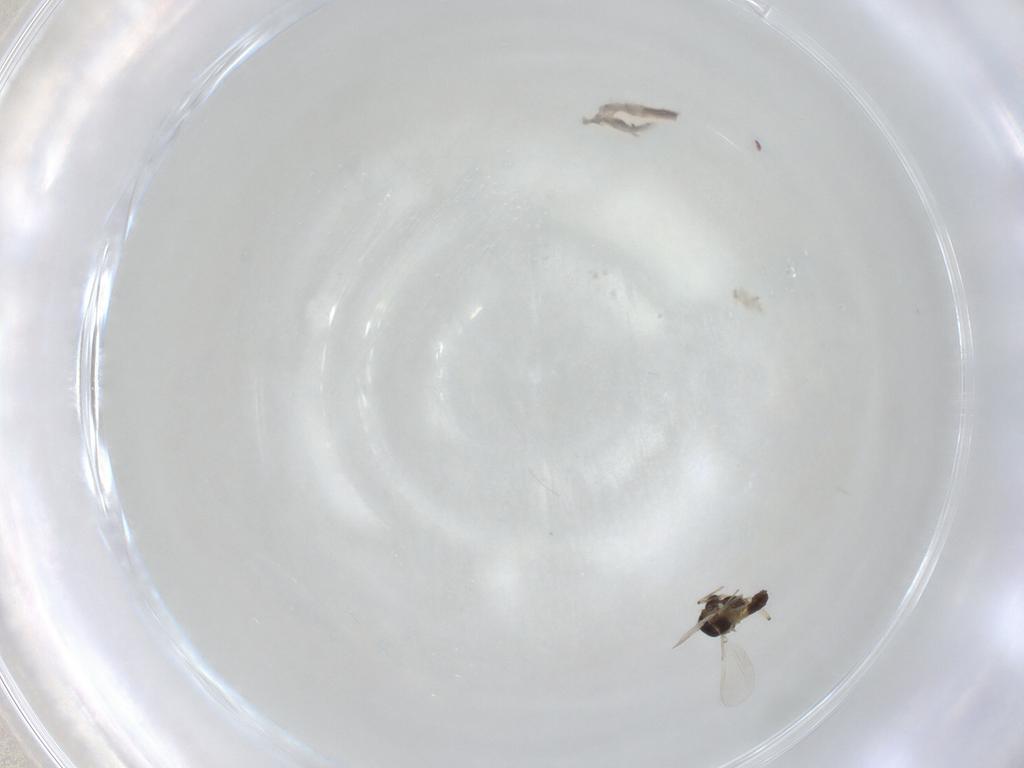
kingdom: Animalia
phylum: Arthropoda
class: Insecta
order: Diptera
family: Chironomidae
